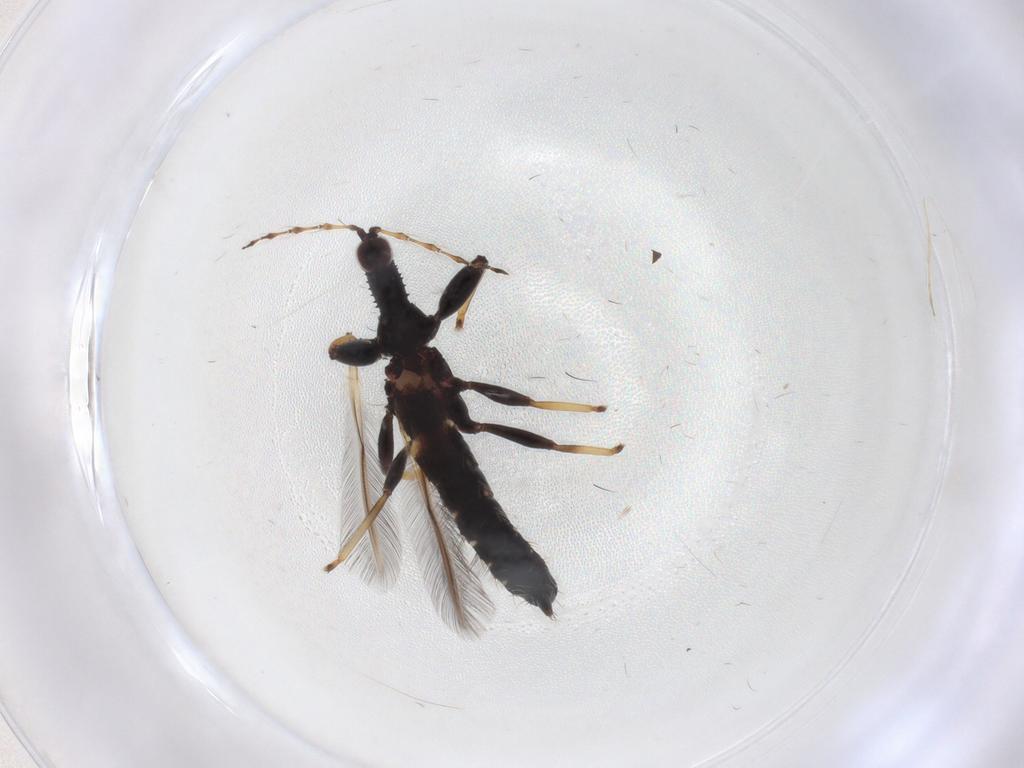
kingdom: Animalia
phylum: Arthropoda
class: Insecta
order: Thysanoptera
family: Phlaeothripidae
